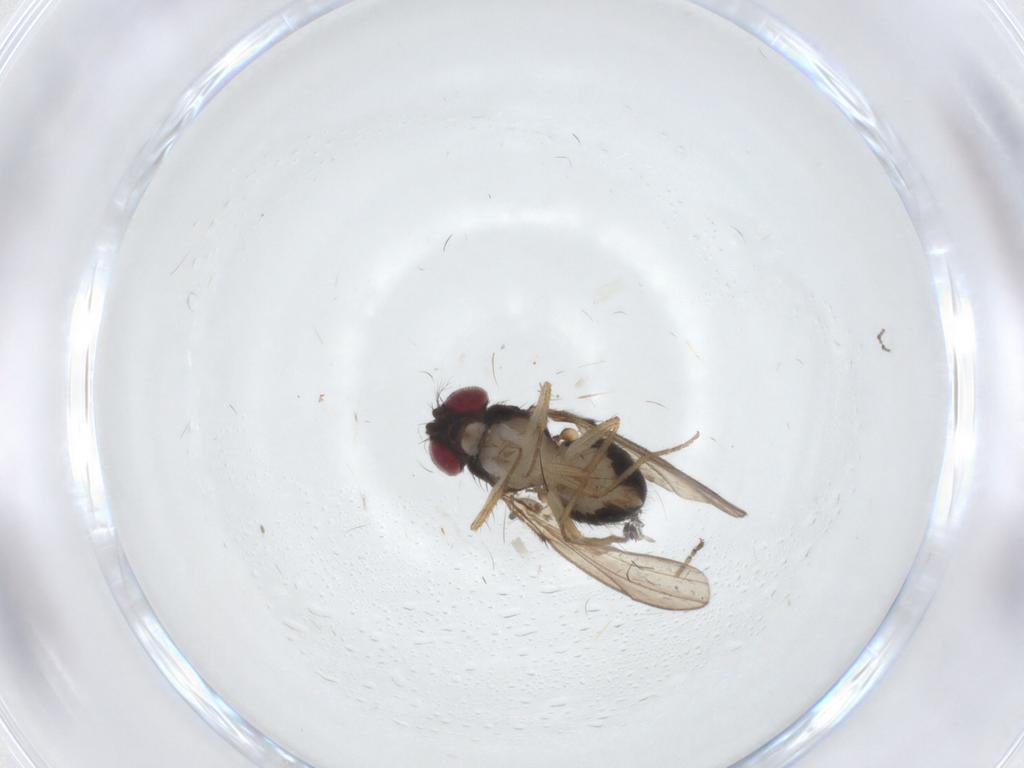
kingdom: Animalia
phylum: Arthropoda
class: Insecta
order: Diptera
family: Drosophilidae
